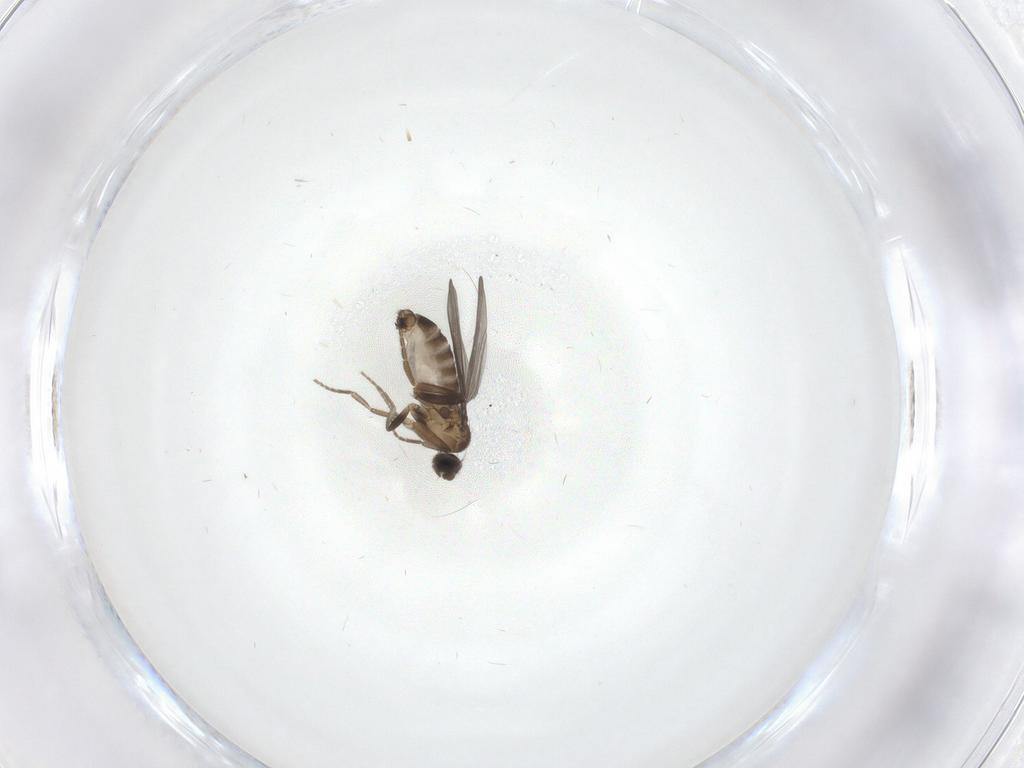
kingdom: Animalia
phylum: Arthropoda
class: Insecta
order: Diptera
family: Phoridae
